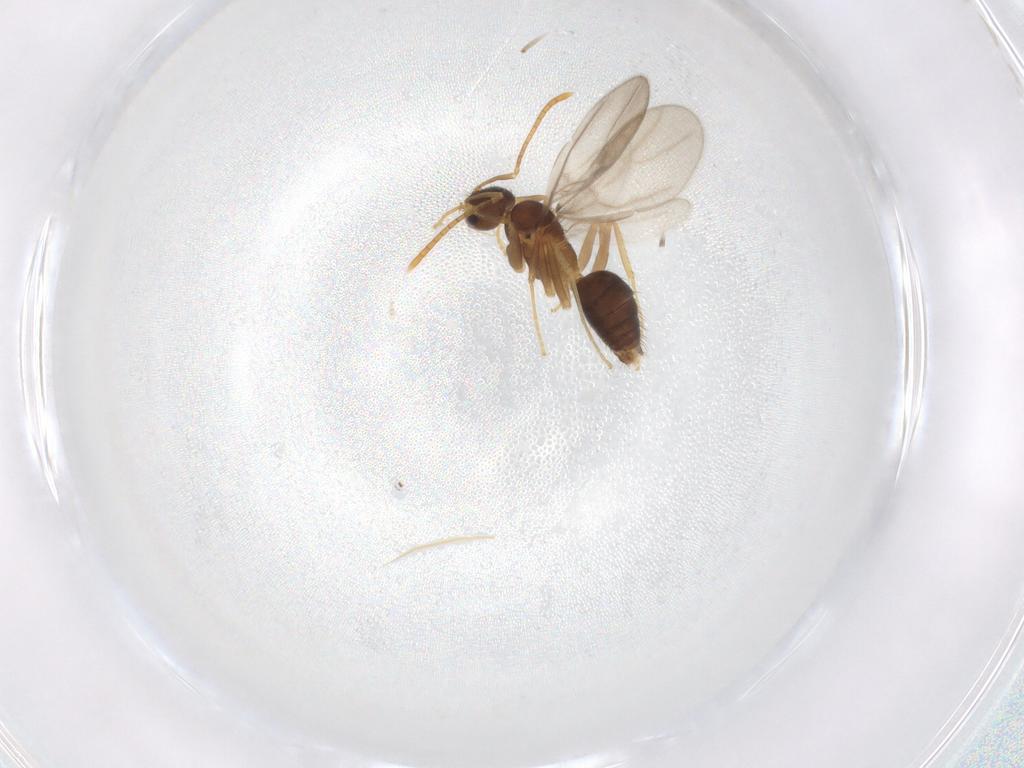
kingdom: Animalia
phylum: Arthropoda
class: Insecta
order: Hymenoptera
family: Formicidae
